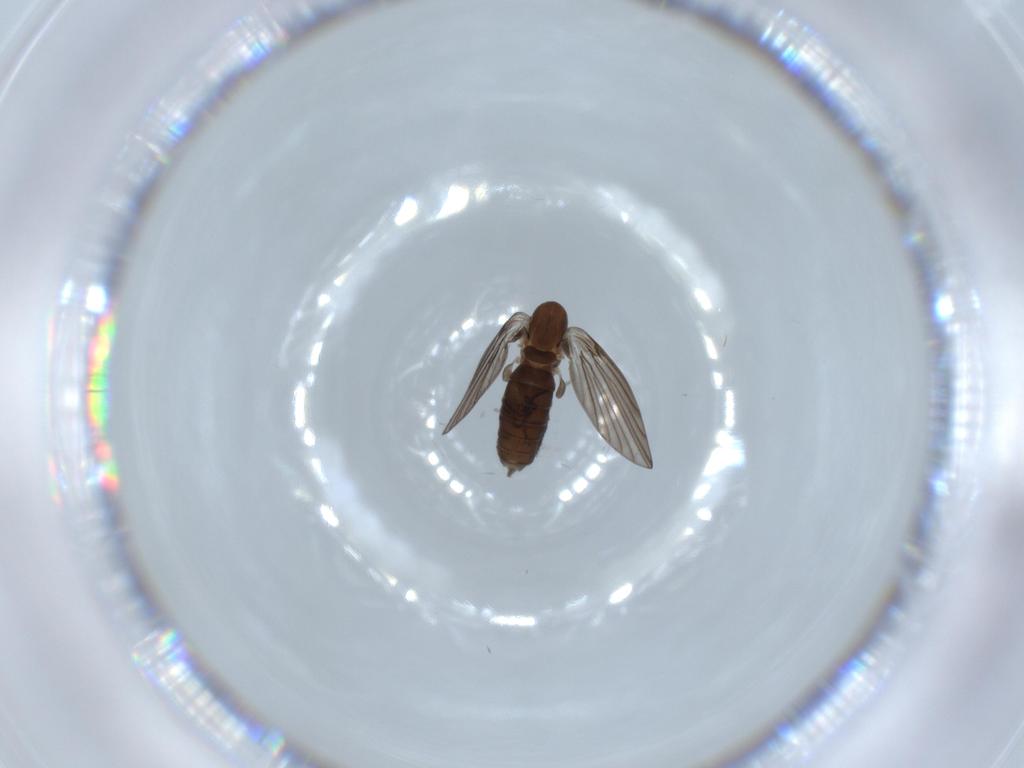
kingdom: Animalia
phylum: Arthropoda
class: Insecta
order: Diptera
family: Psychodidae
